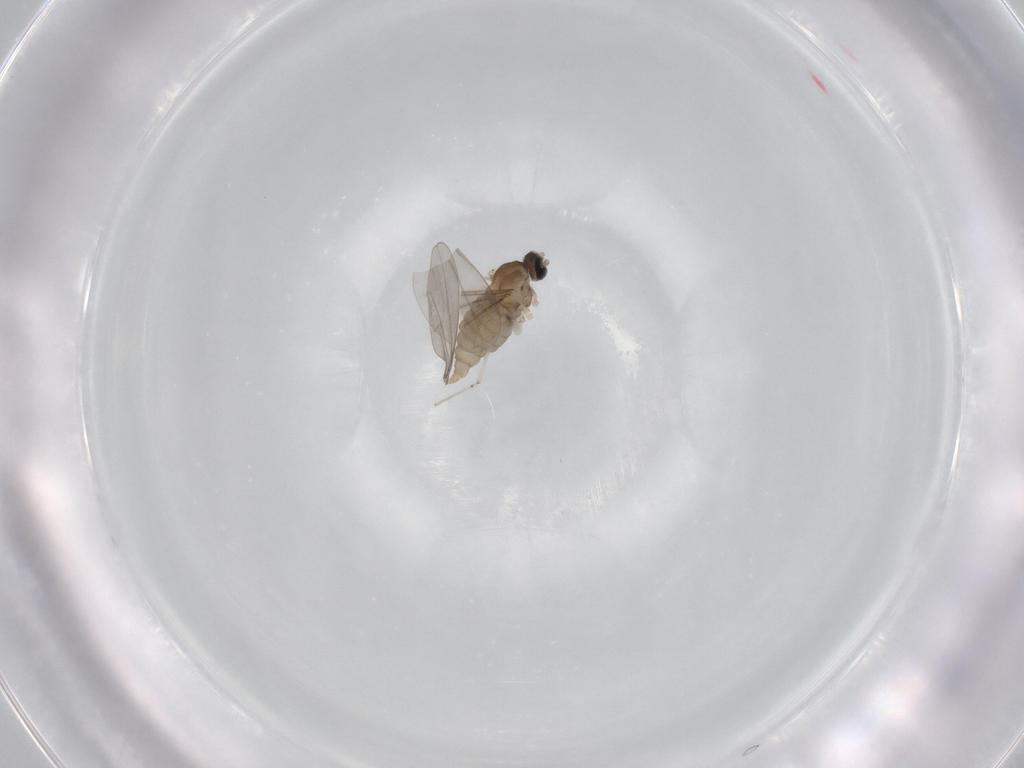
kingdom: Animalia
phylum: Arthropoda
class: Insecta
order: Diptera
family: Cecidomyiidae
